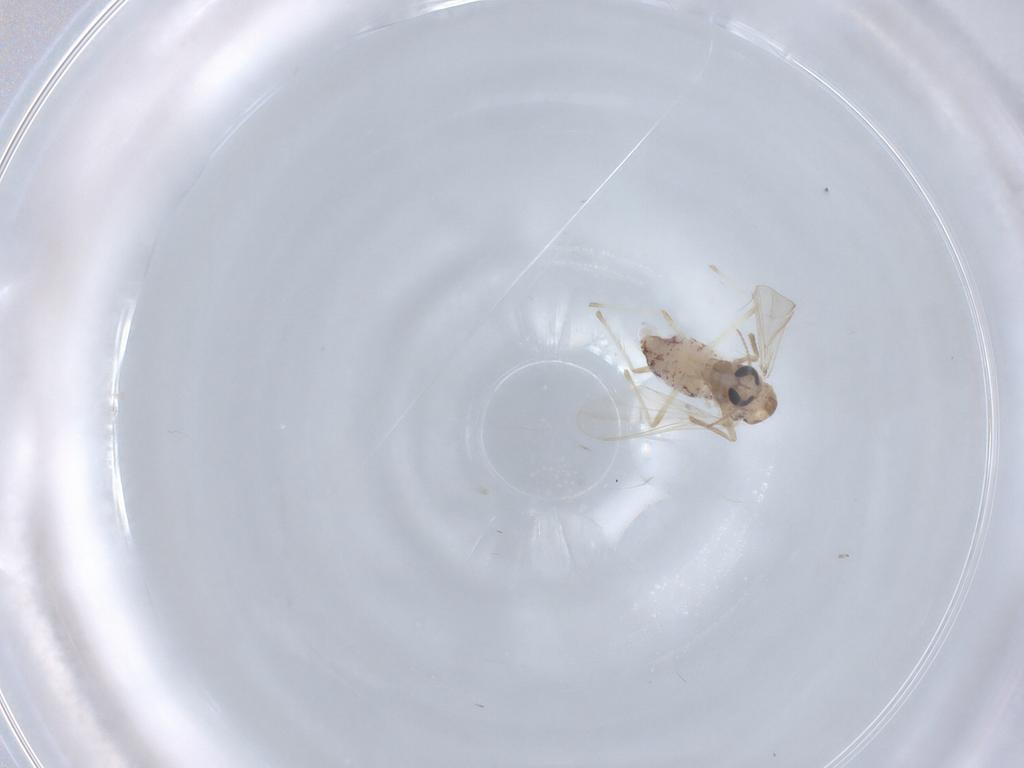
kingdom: Animalia
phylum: Arthropoda
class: Insecta
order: Diptera
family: Chironomidae
